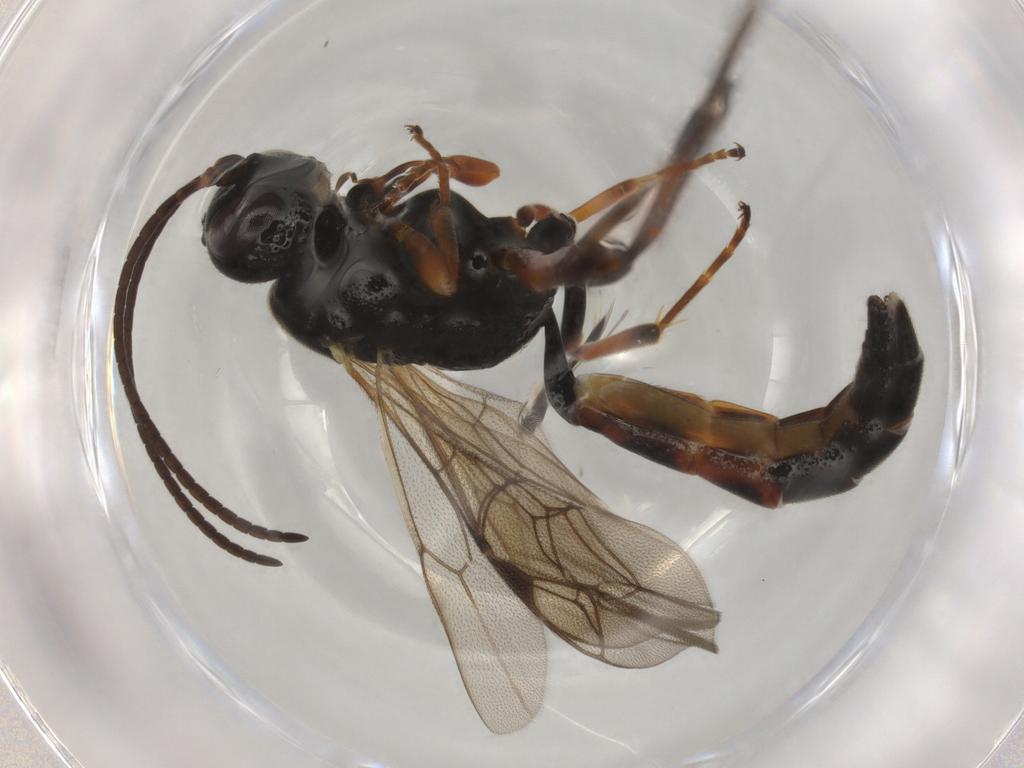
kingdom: Animalia
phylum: Arthropoda
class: Insecta
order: Hymenoptera
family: Ichneumonidae
